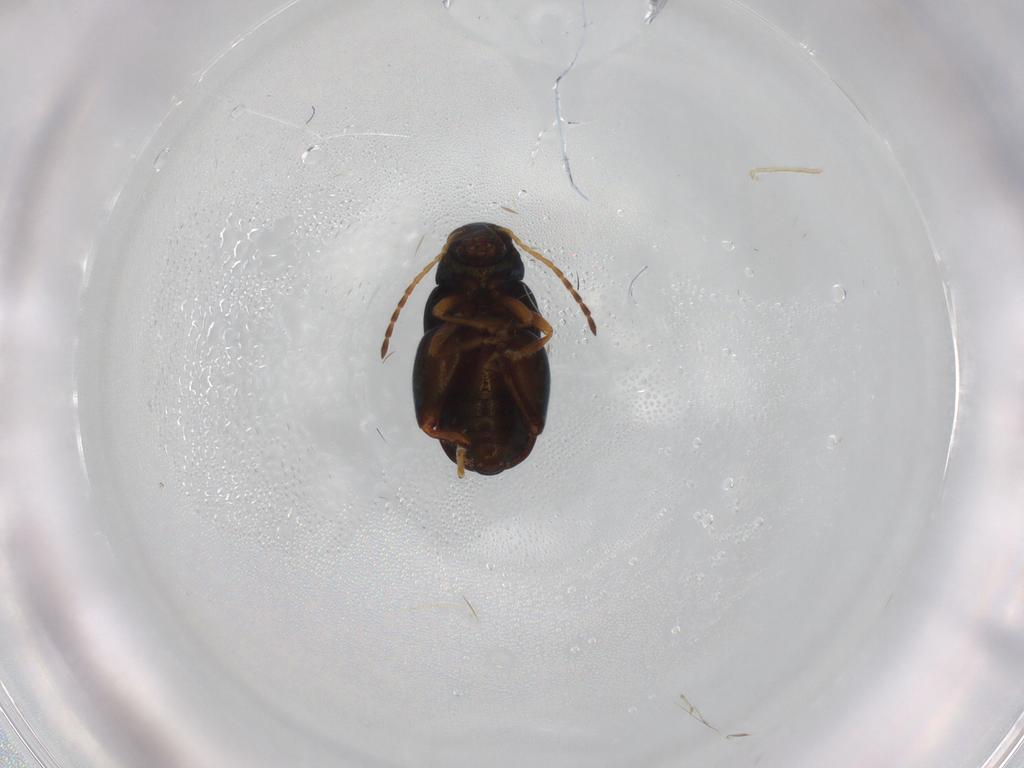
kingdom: Animalia
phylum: Arthropoda
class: Insecta
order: Coleoptera
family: Chrysomelidae
